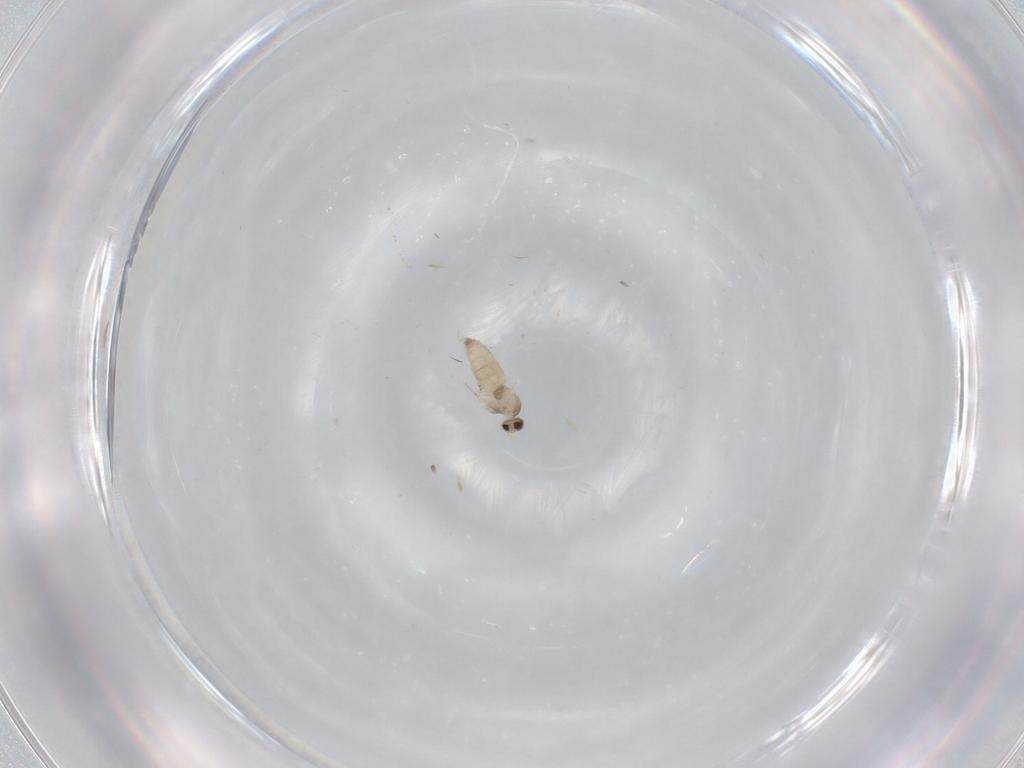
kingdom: Animalia
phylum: Arthropoda
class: Insecta
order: Diptera
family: Cecidomyiidae
